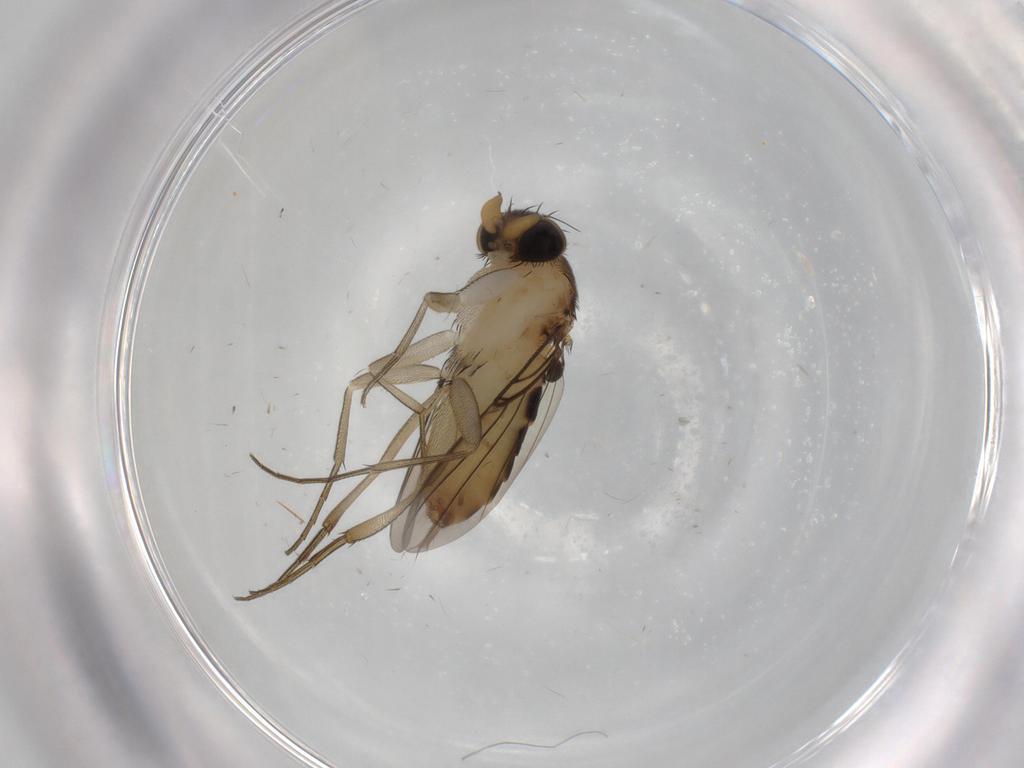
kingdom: Animalia
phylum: Arthropoda
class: Insecta
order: Diptera
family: Phoridae
